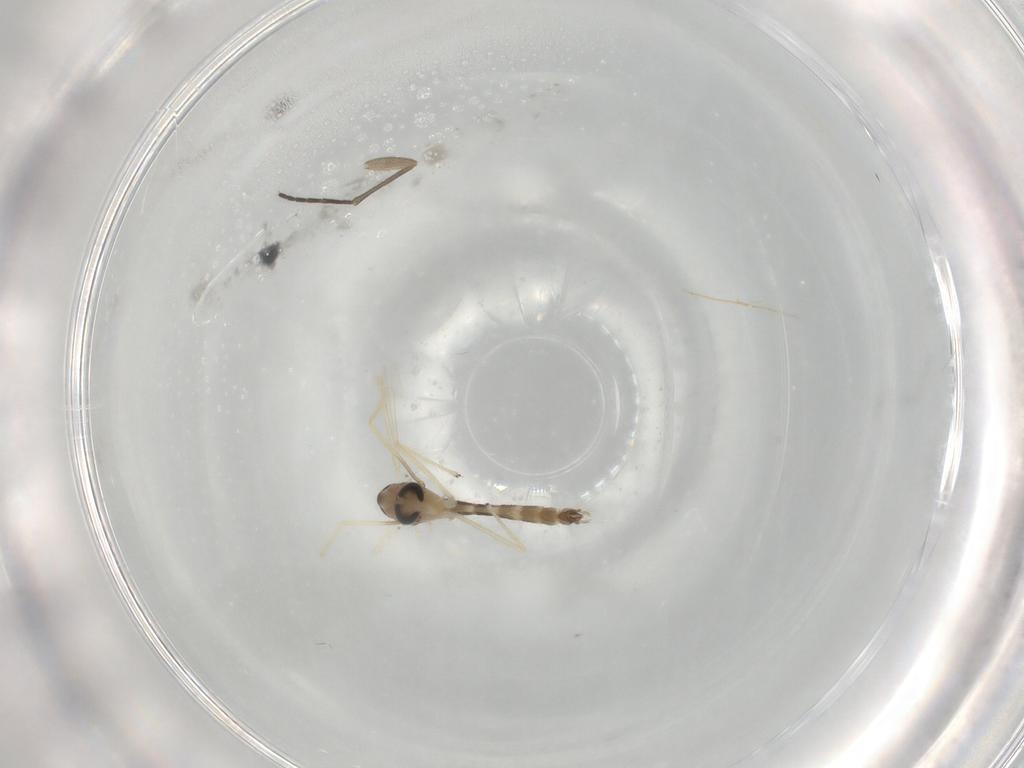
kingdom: Animalia
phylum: Arthropoda
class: Insecta
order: Diptera
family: Chironomidae
